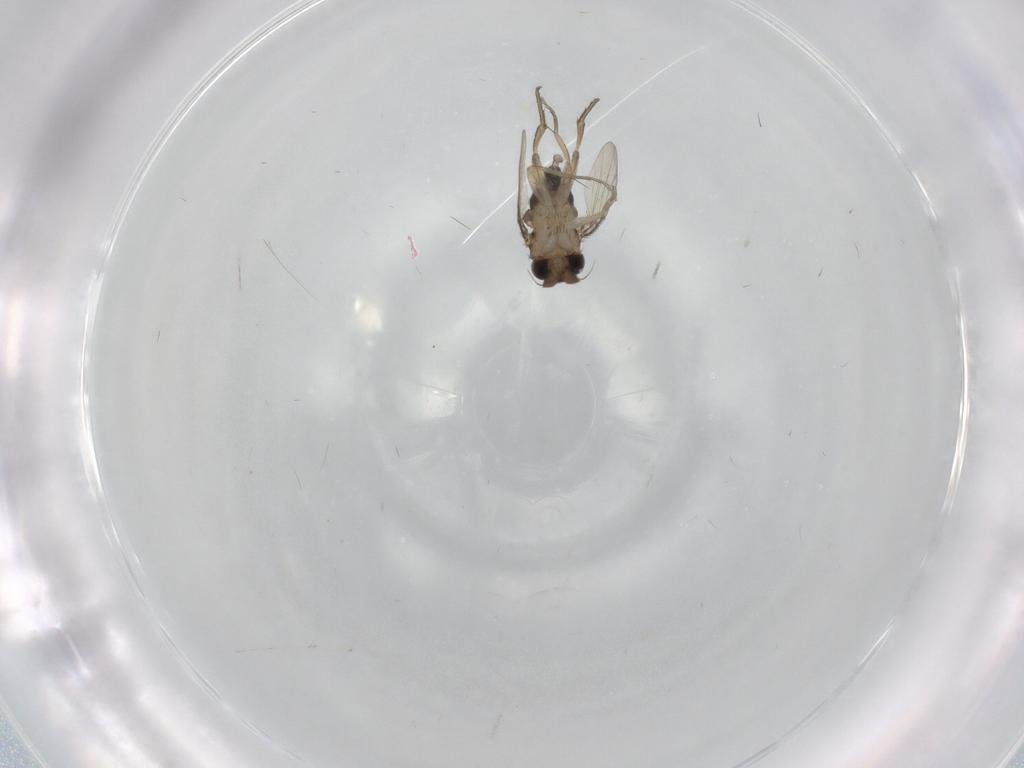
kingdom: Animalia
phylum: Arthropoda
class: Insecta
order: Diptera
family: Cecidomyiidae
